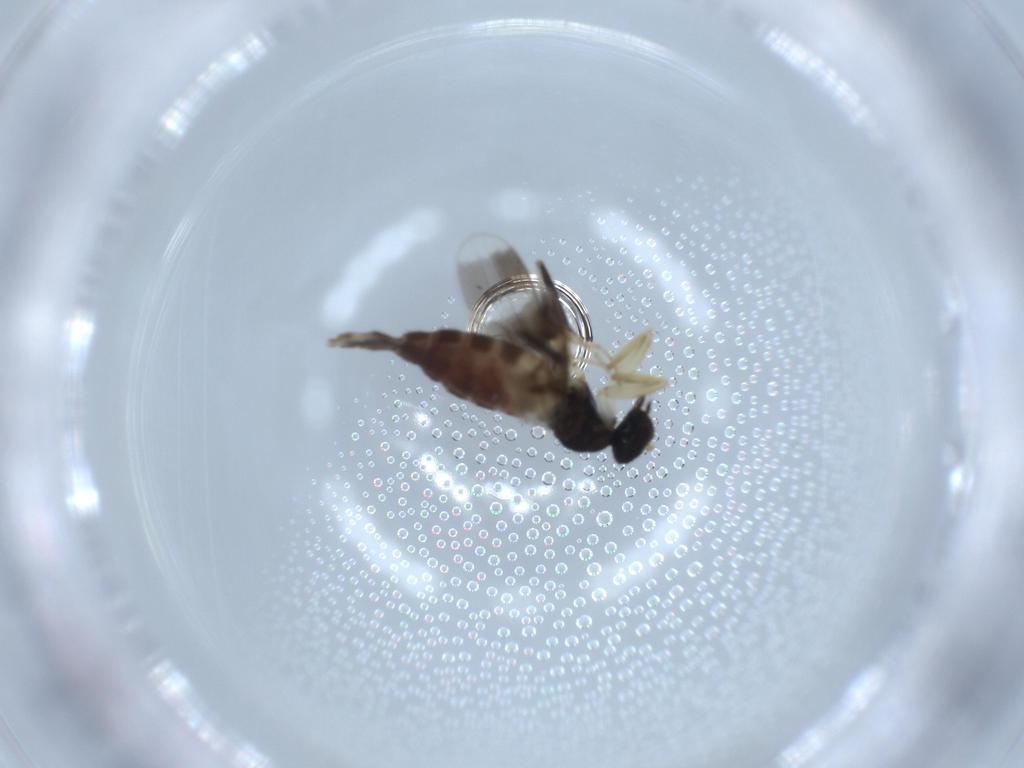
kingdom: Animalia
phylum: Arthropoda
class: Insecta
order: Diptera
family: Hybotidae
